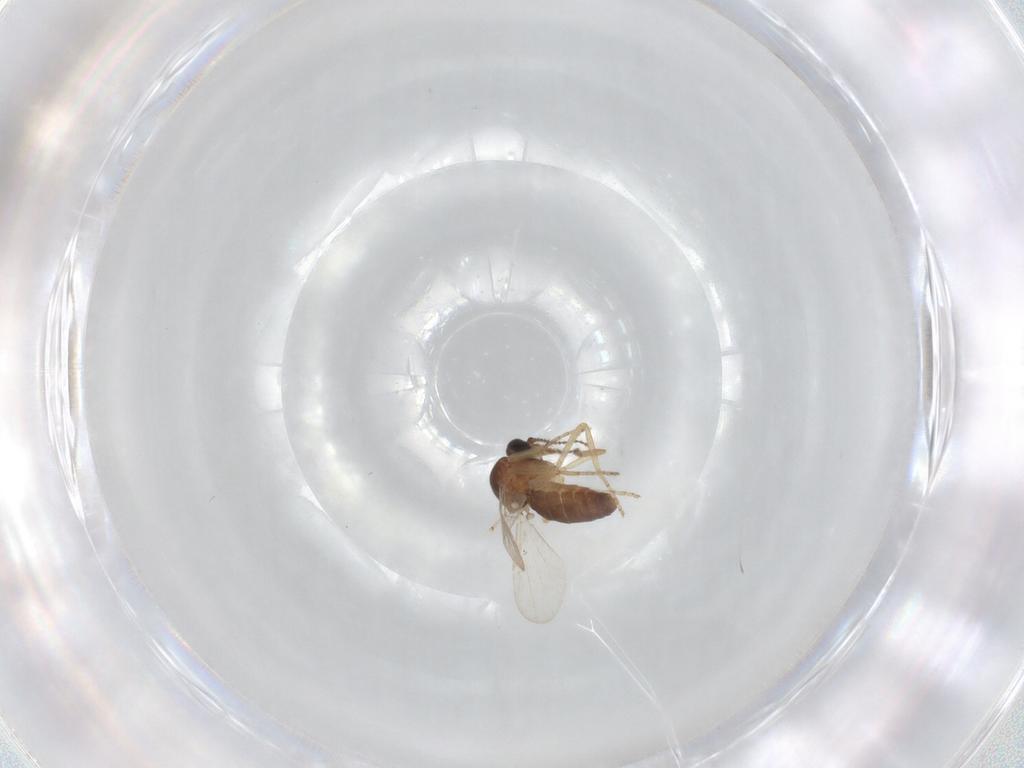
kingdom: Animalia
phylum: Arthropoda
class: Insecta
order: Diptera
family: Ceratopogonidae
